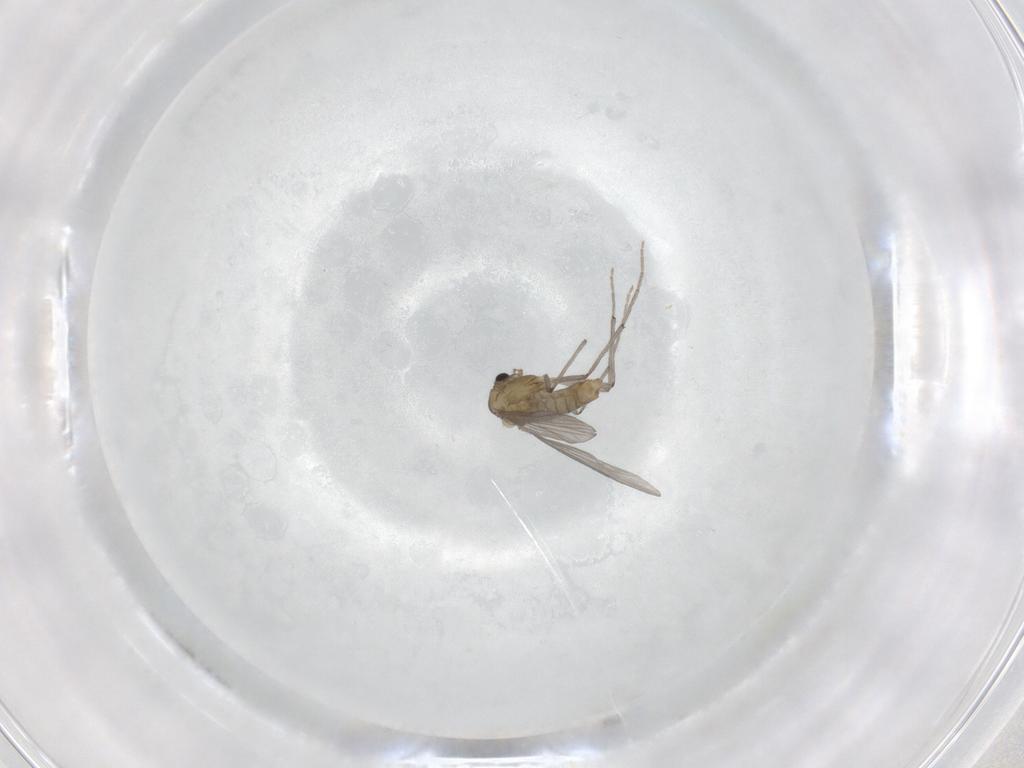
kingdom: Animalia
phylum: Arthropoda
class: Insecta
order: Diptera
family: Chironomidae
